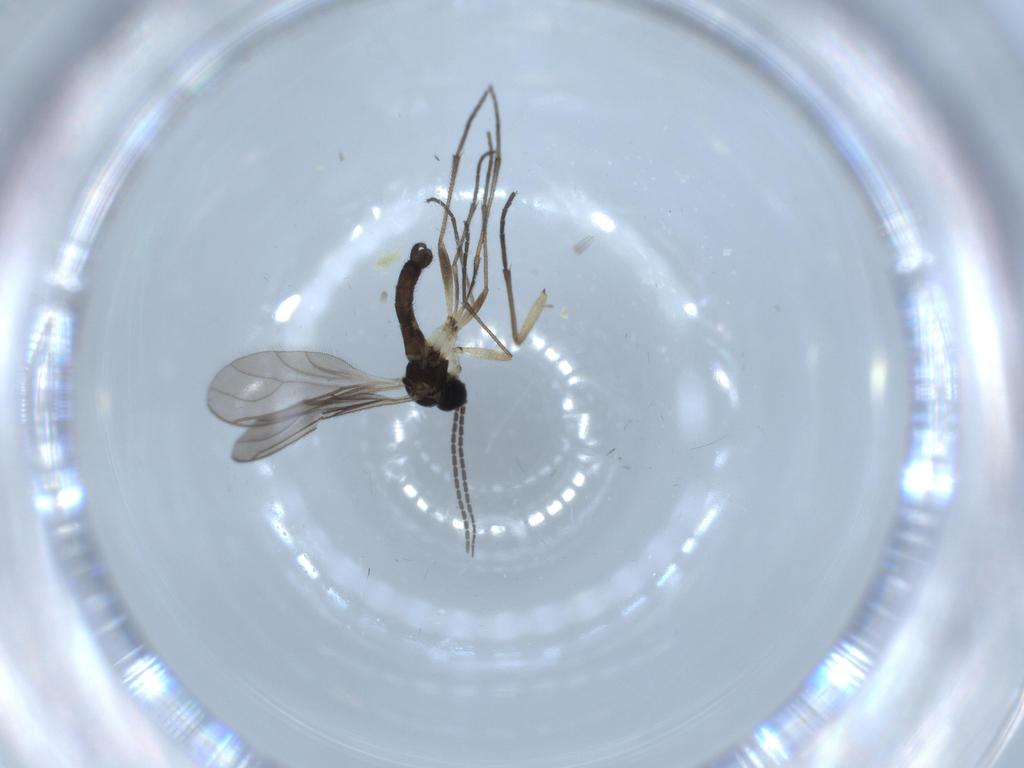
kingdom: Animalia
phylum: Arthropoda
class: Insecta
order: Diptera
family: Sciaridae
